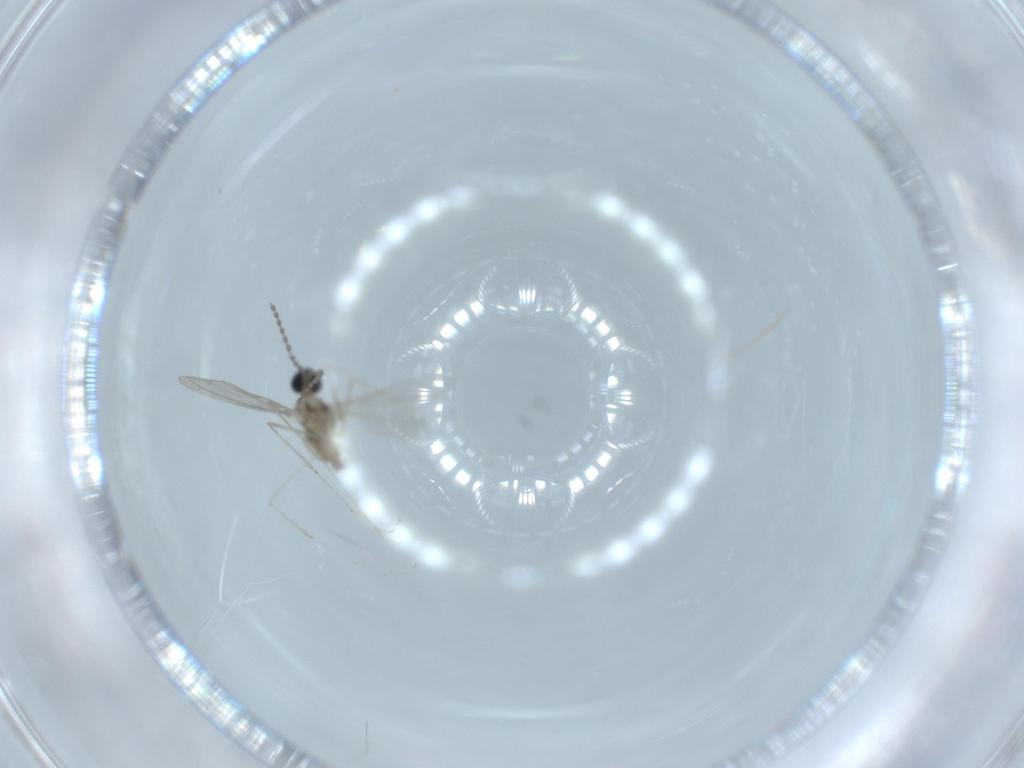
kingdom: Animalia
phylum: Arthropoda
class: Insecta
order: Diptera
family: Cecidomyiidae
